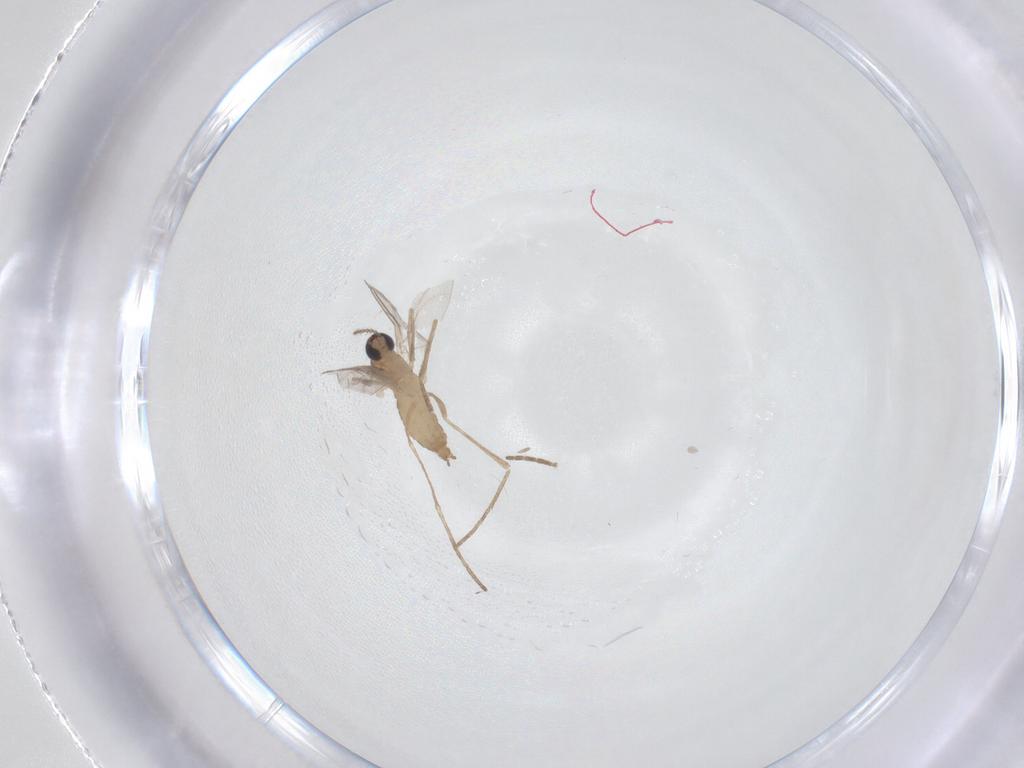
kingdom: Animalia
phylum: Arthropoda
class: Insecta
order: Diptera
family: Cecidomyiidae
